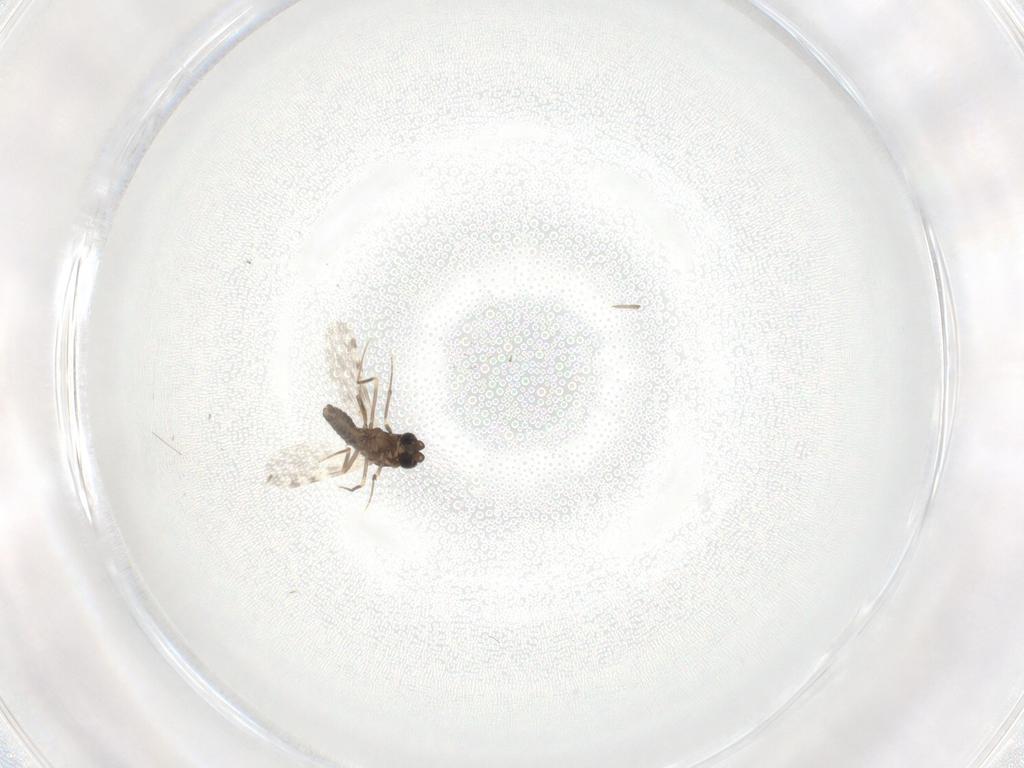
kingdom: Animalia
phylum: Arthropoda
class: Insecta
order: Diptera
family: Ceratopogonidae
